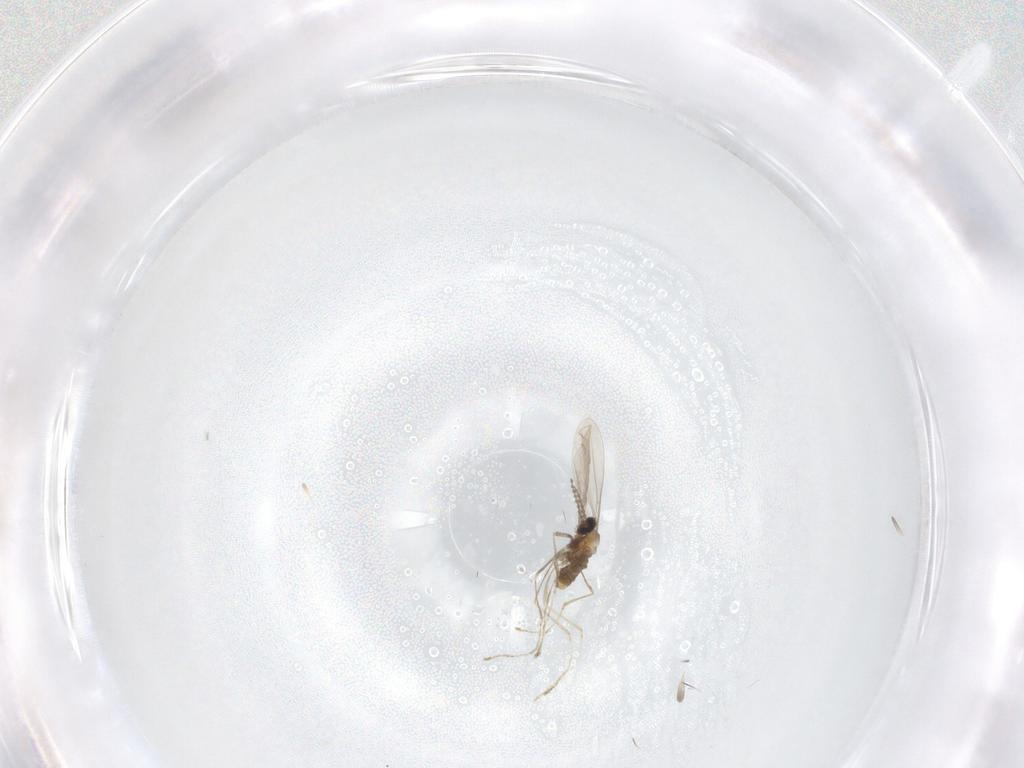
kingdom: Animalia
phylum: Arthropoda
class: Insecta
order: Diptera
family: Cecidomyiidae
